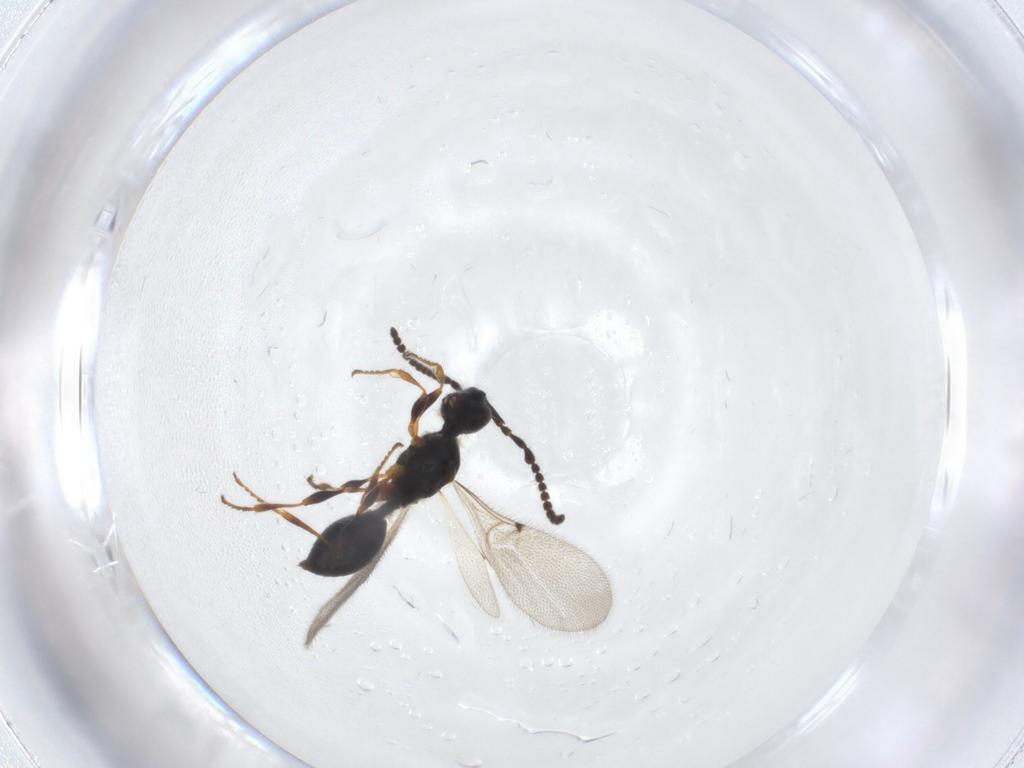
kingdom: Animalia
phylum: Arthropoda
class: Insecta
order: Hymenoptera
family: Diapriidae
